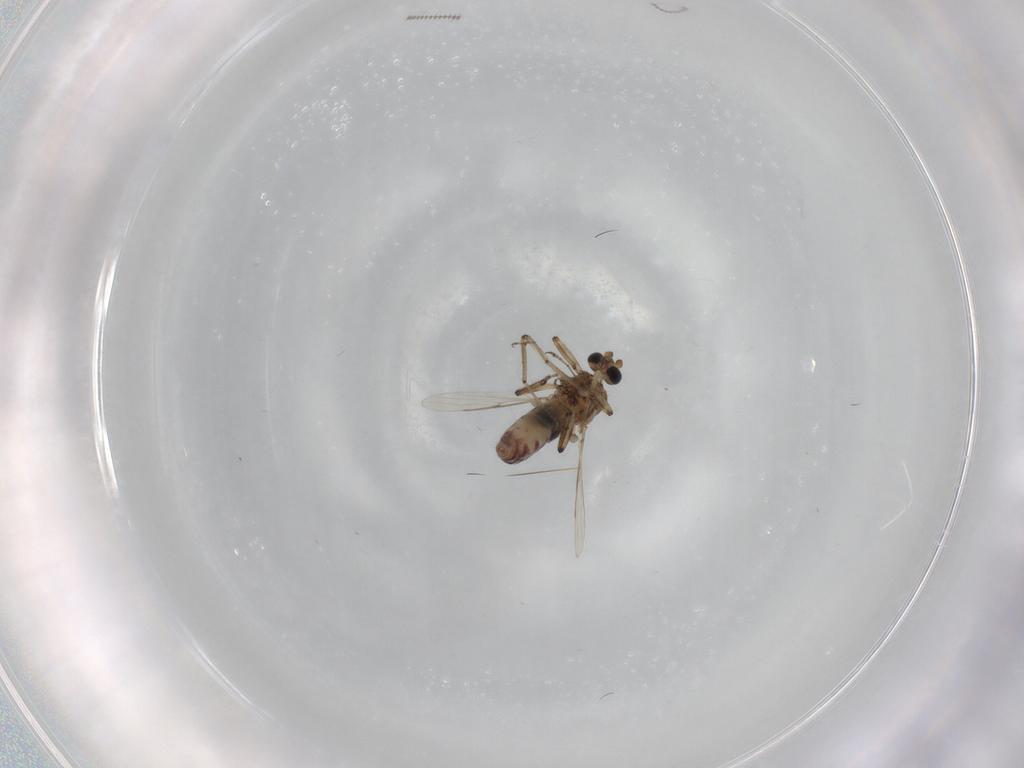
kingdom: Animalia
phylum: Arthropoda
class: Insecta
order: Diptera
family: Ceratopogonidae
